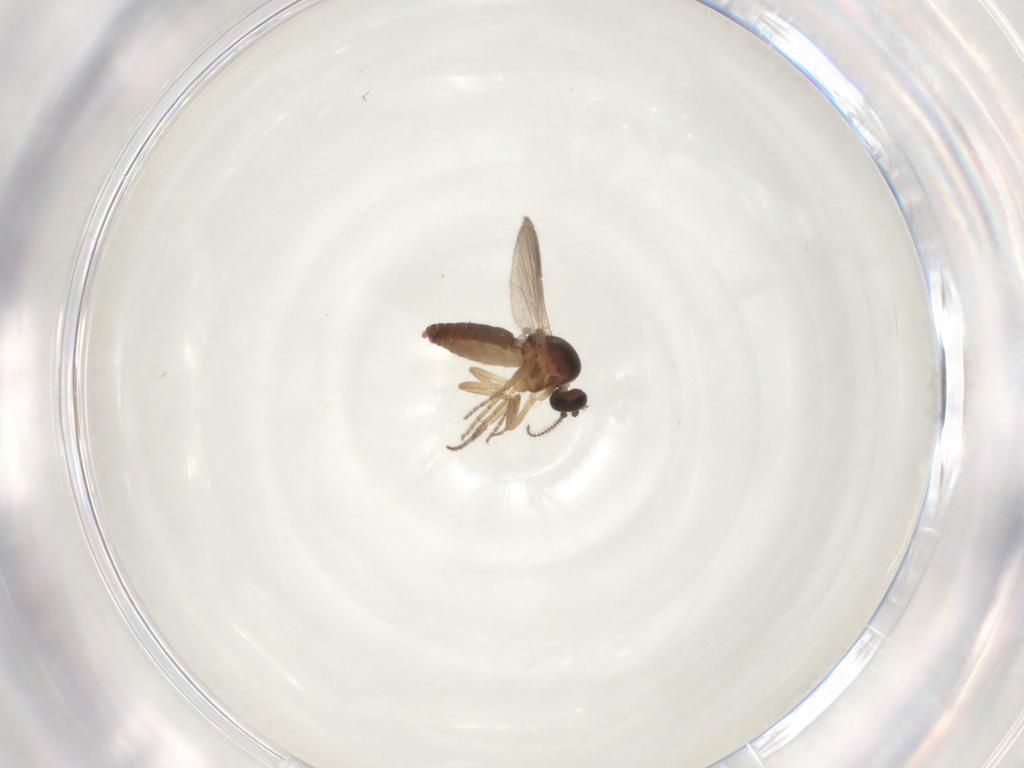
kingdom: Animalia
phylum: Arthropoda
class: Insecta
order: Diptera
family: Ceratopogonidae
